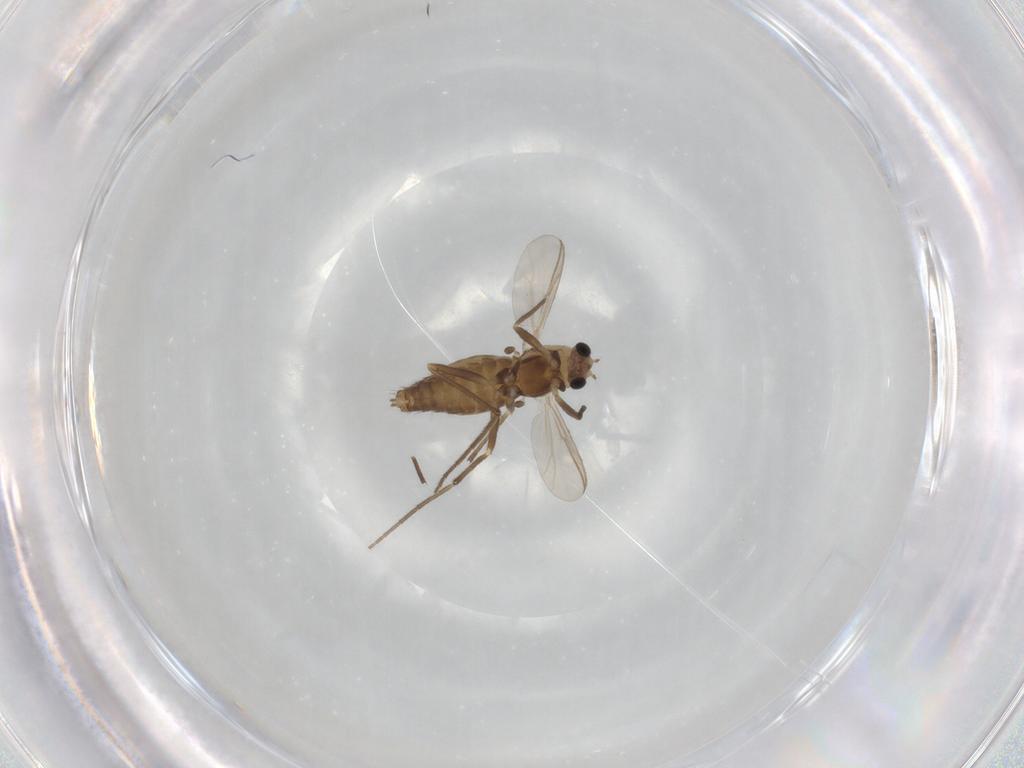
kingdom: Animalia
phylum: Arthropoda
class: Insecta
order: Diptera
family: Chironomidae
